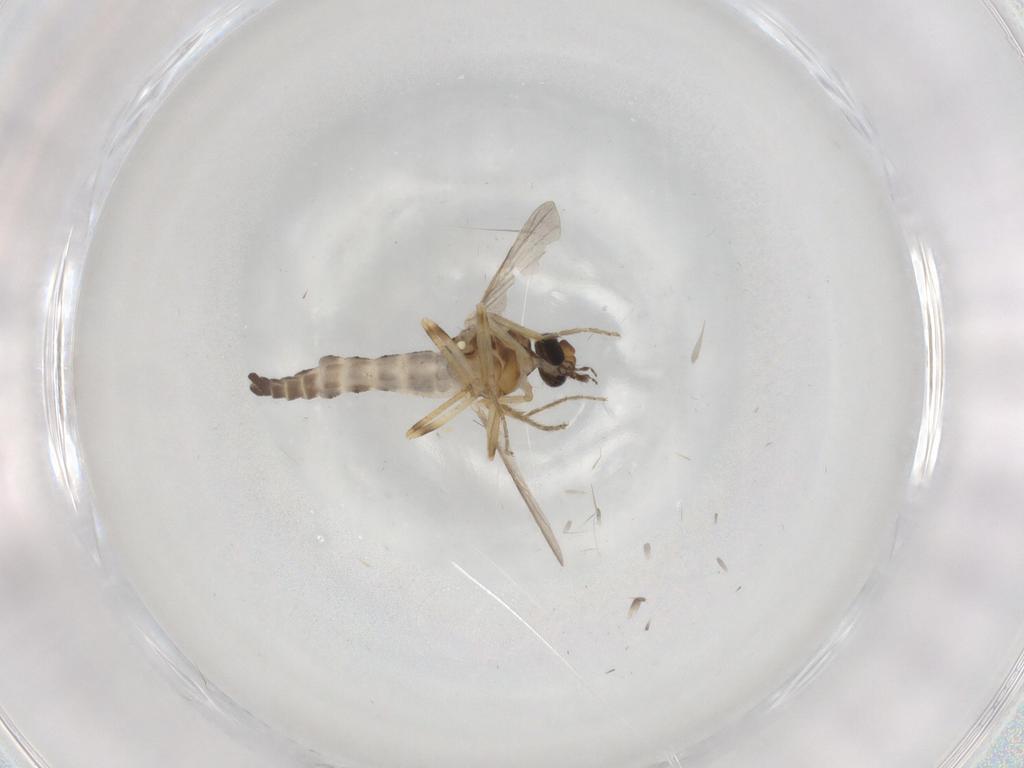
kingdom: Animalia
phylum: Arthropoda
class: Insecta
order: Diptera
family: Ceratopogonidae
